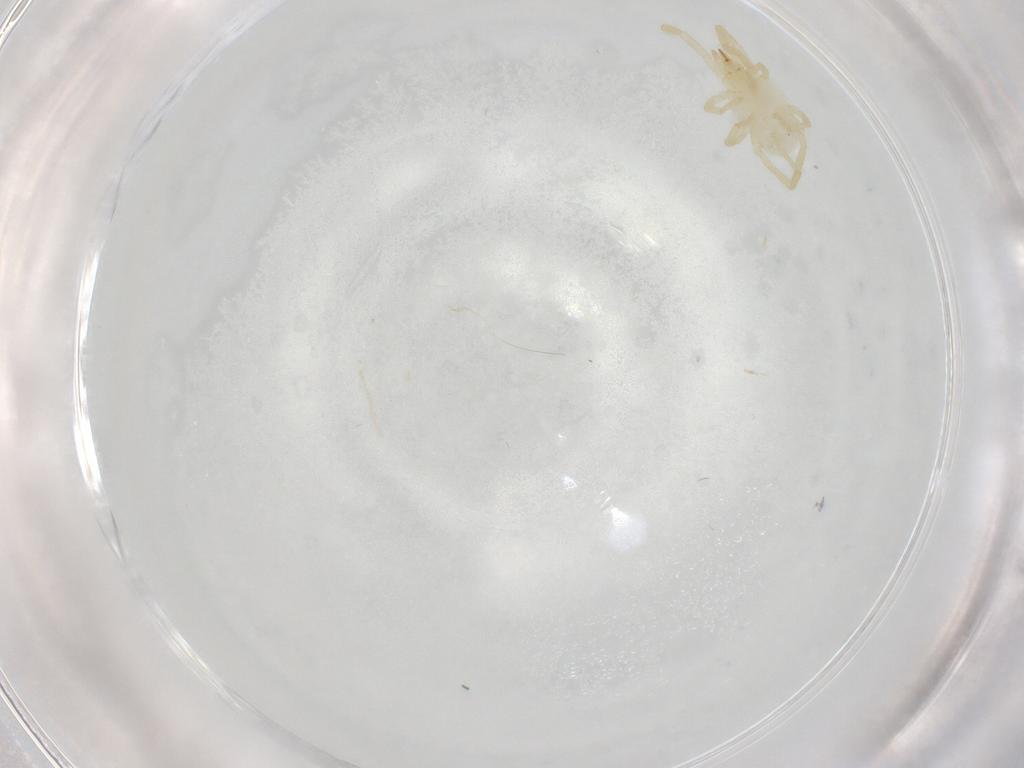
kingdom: Animalia
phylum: Arthropoda
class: Arachnida
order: Trombidiformes
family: Erythraeidae
